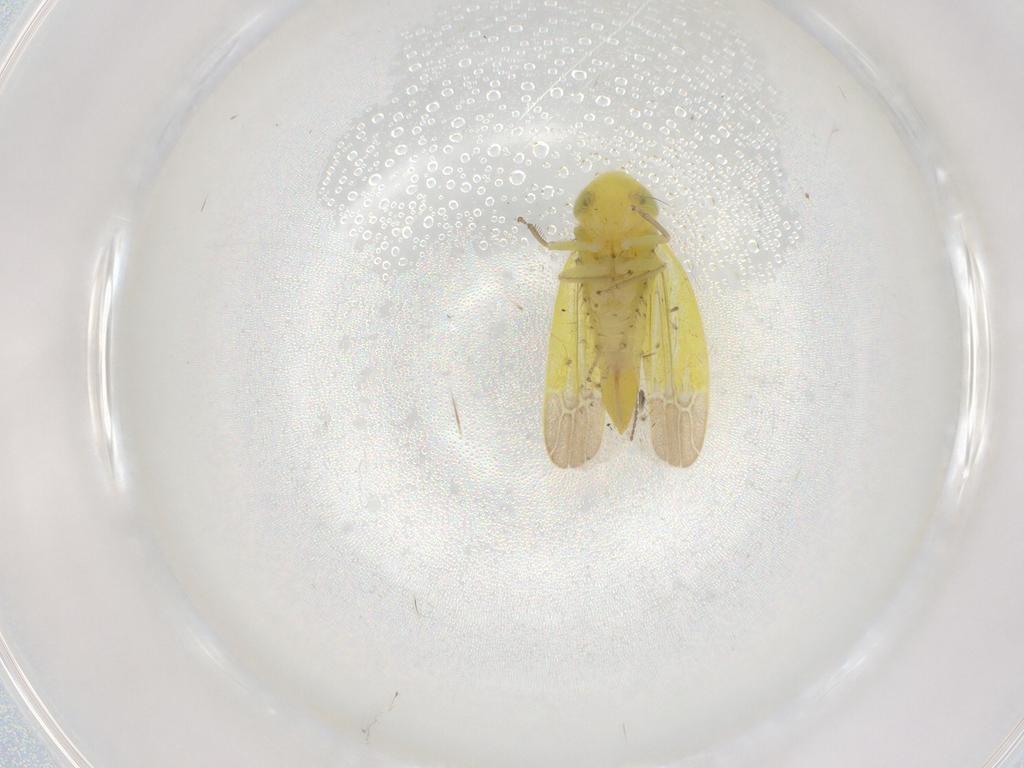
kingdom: Animalia
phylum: Arthropoda
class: Insecta
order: Hemiptera
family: Cicadellidae
